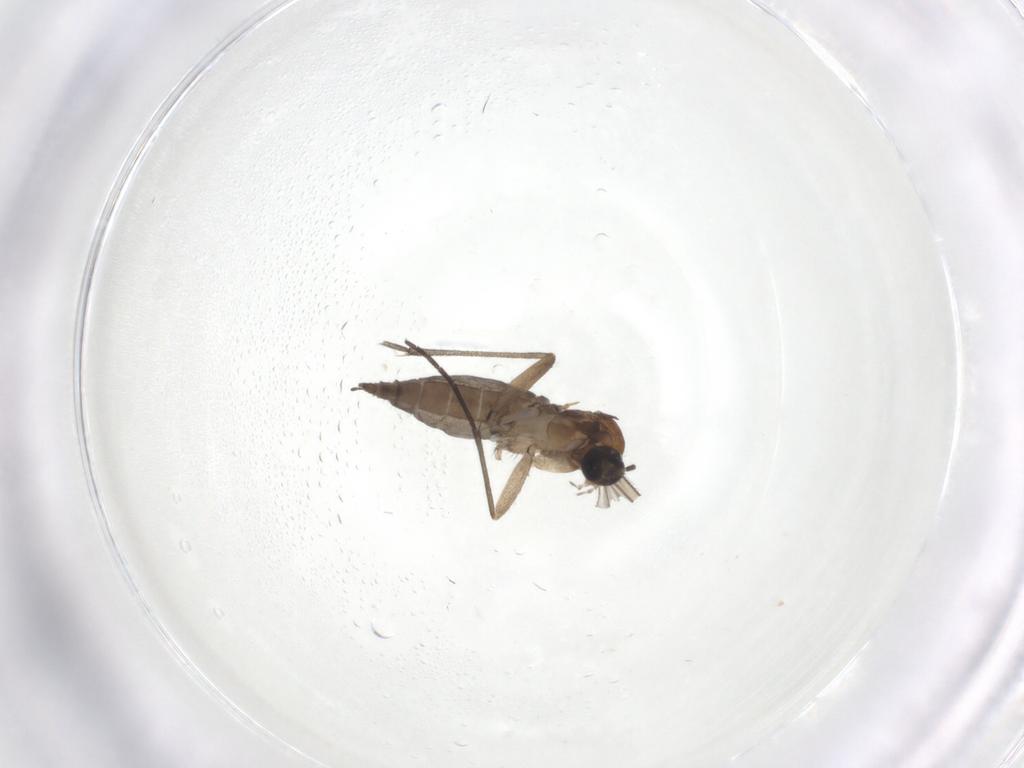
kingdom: Animalia
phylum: Arthropoda
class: Insecta
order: Diptera
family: Sciaridae
